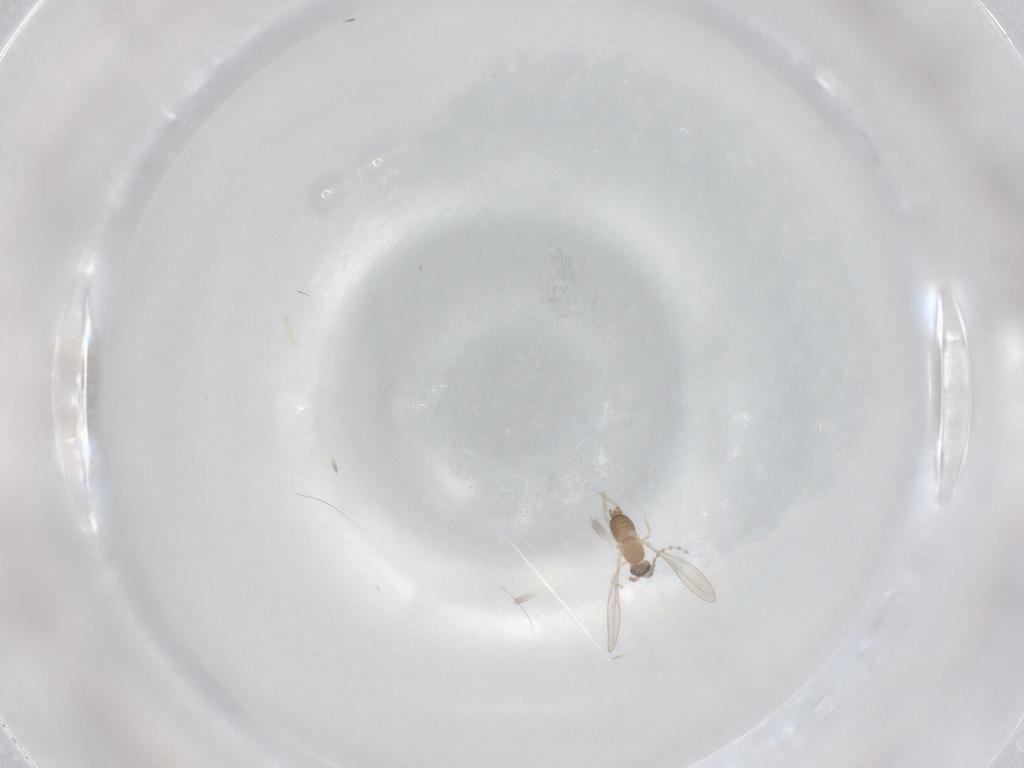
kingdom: Animalia
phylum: Arthropoda
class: Insecta
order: Diptera
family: Cecidomyiidae
